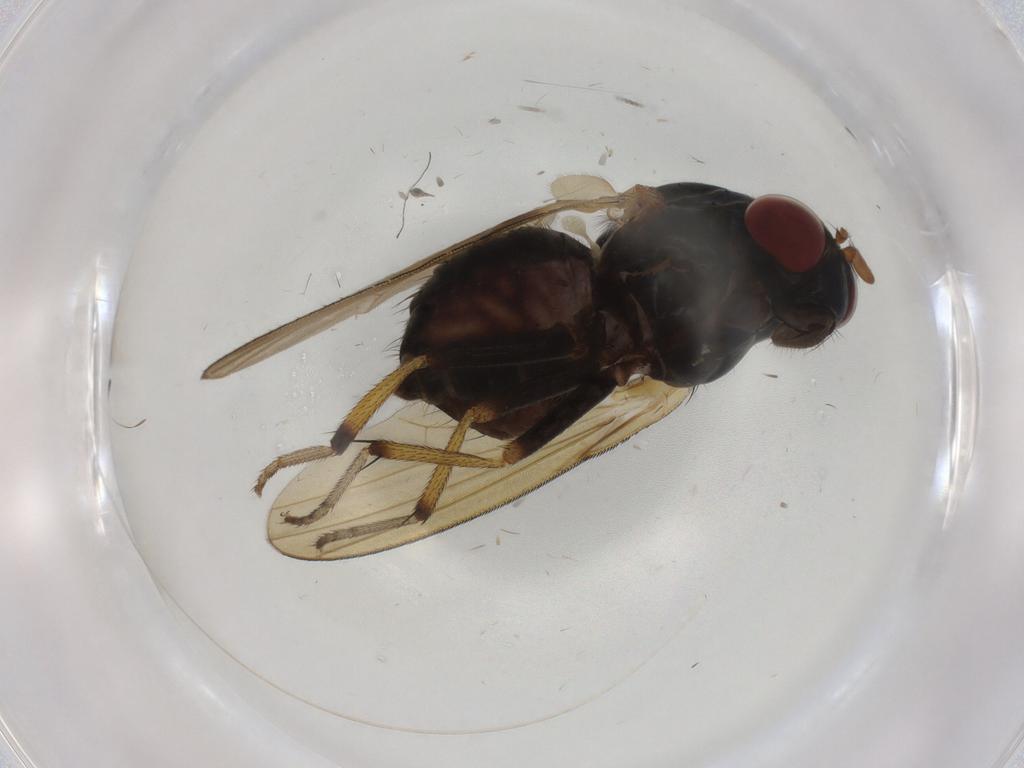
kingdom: Animalia
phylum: Arthropoda
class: Insecta
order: Diptera
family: Sciaridae
